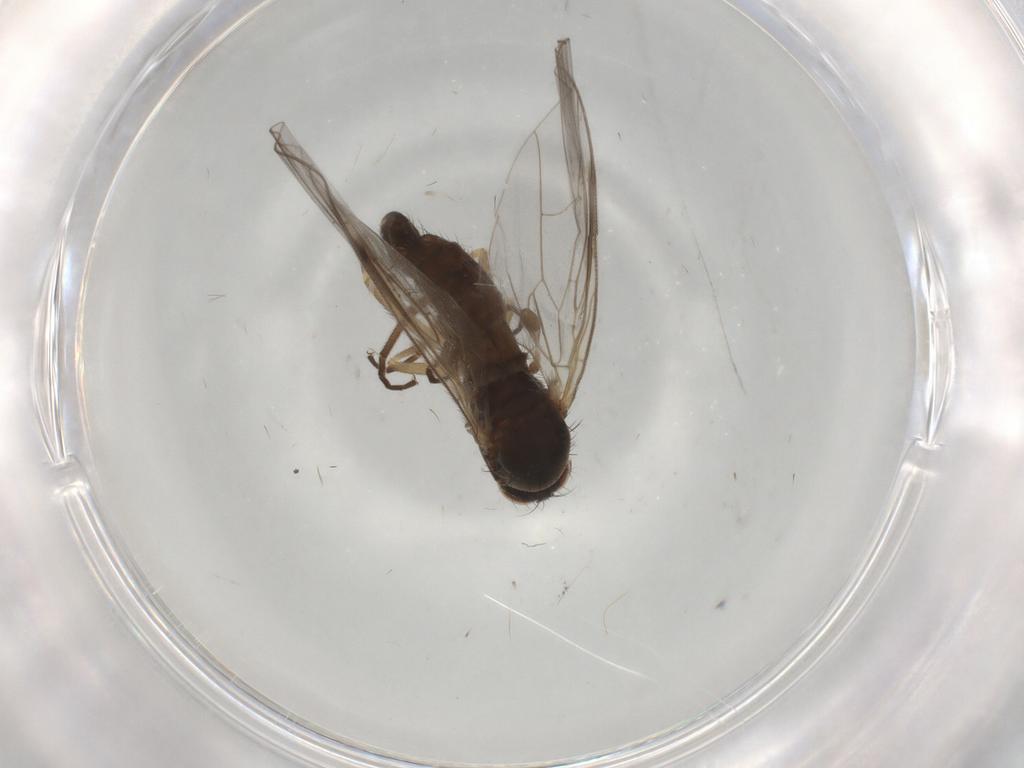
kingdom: Animalia
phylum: Arthropoda
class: Insecta
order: Diptera
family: Empididae
